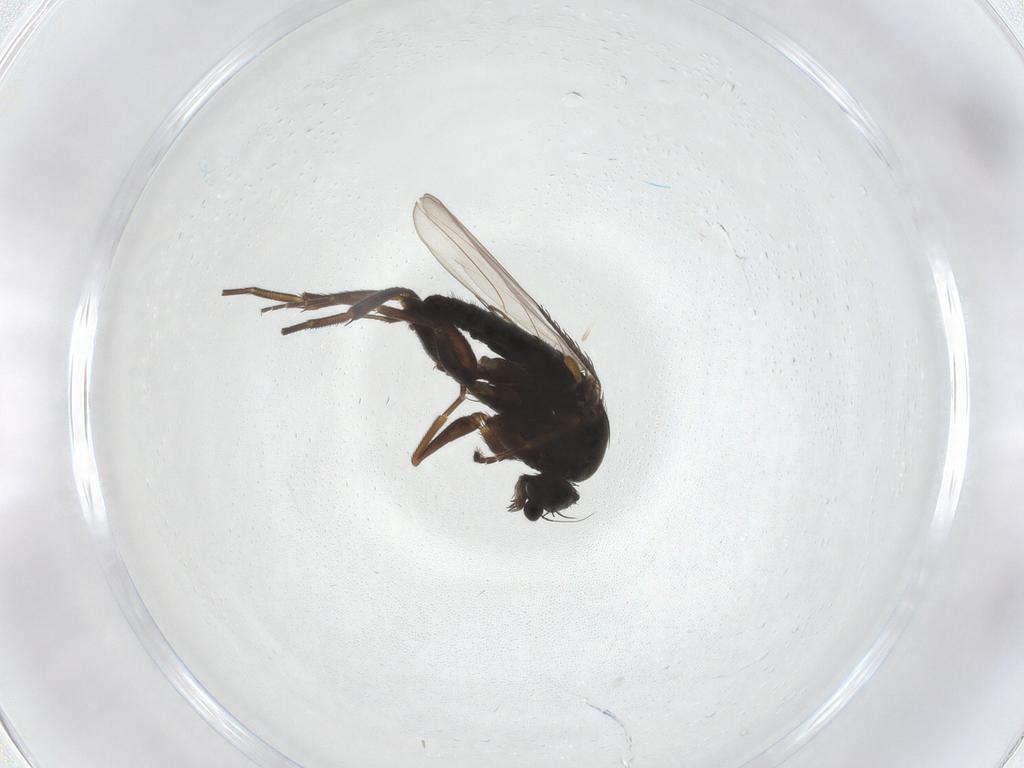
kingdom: Animalia
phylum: Arthropoda
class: Insecta
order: Diptera
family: Phoridae
